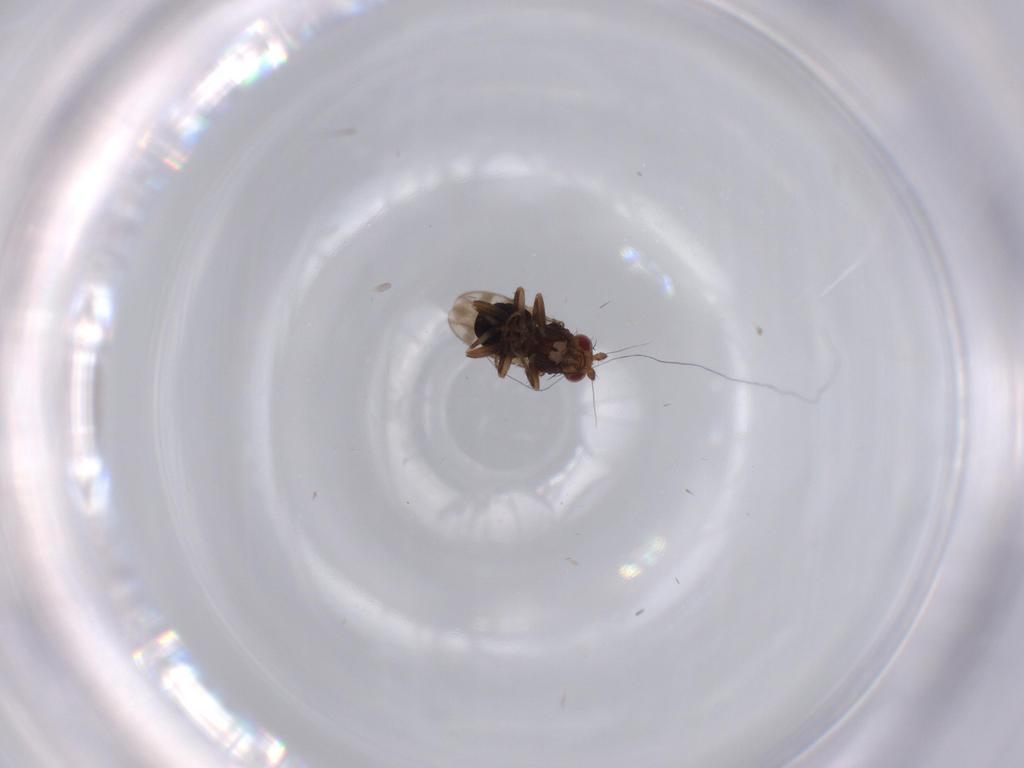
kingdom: Animalia
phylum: Arthropoda
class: Insecta
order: Diptera
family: Sphaeroceridae
